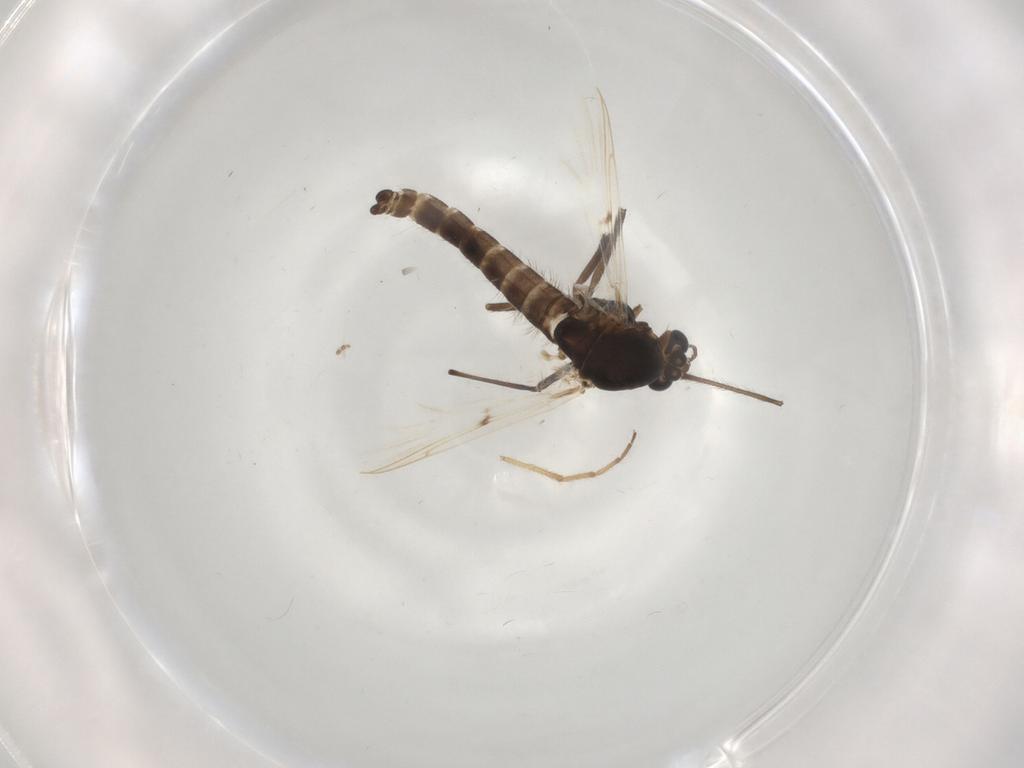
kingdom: Animalia
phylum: Arthropoda
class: Insecta
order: Diptera
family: Chironomidae
